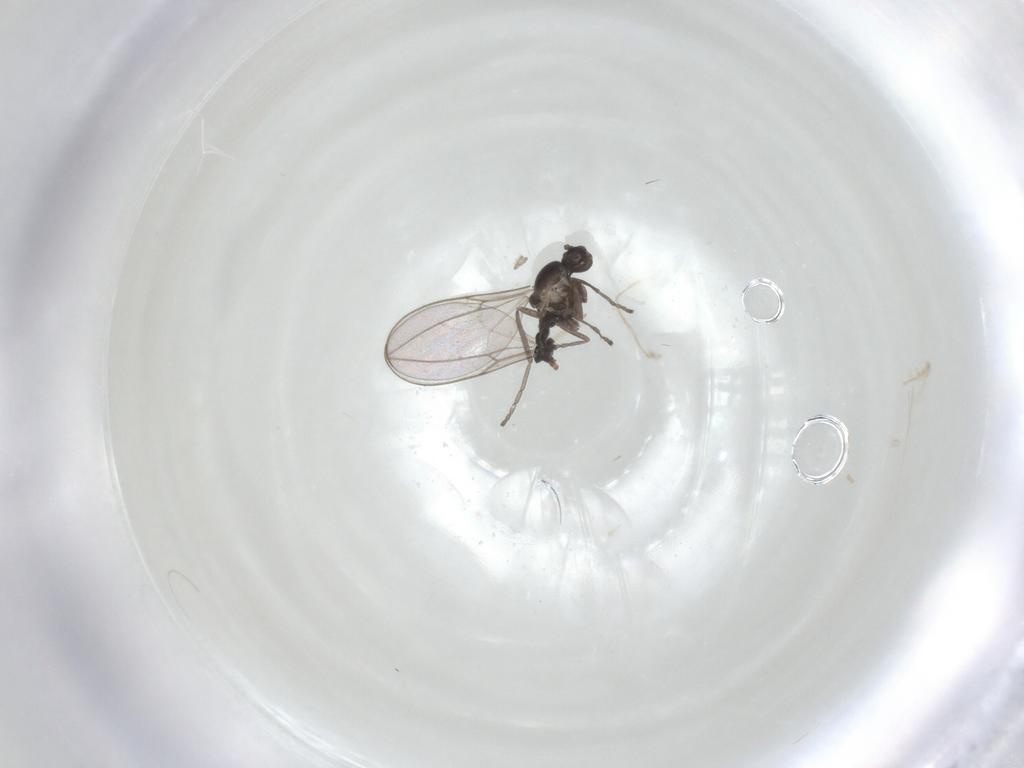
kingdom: Animalia
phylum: Arthropoda
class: Insecta
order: Diptera
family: Cecidomyiidae
